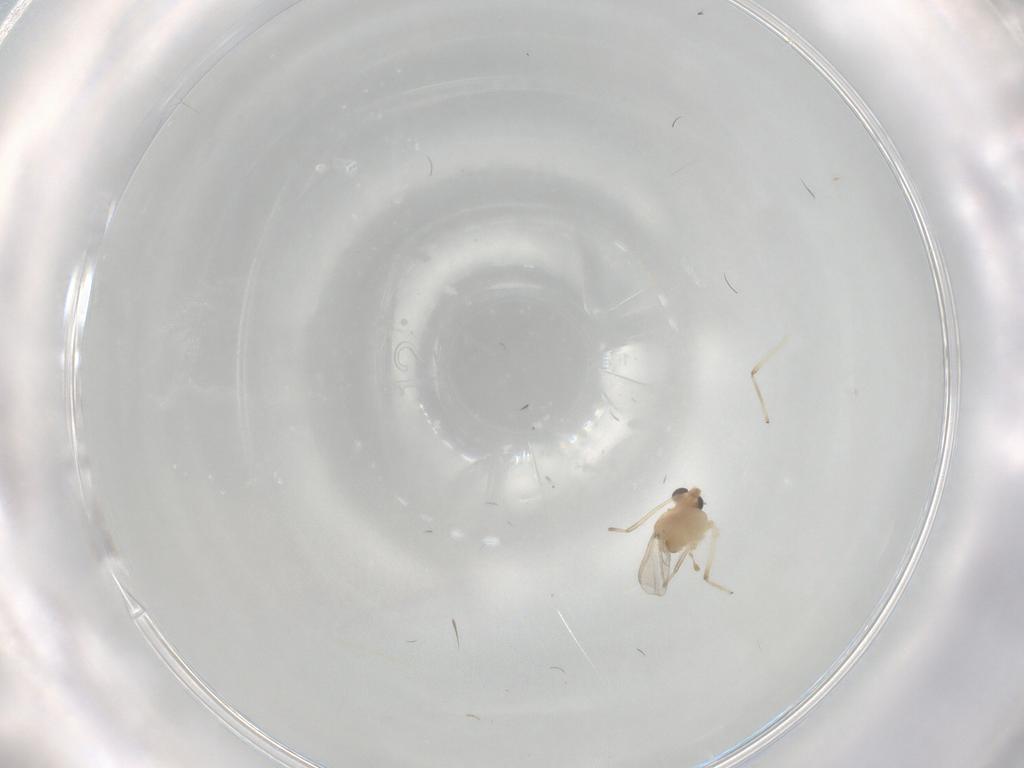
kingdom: Animalia
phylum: Arthropoda
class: Insecta
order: Diptera
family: Chironomidae
